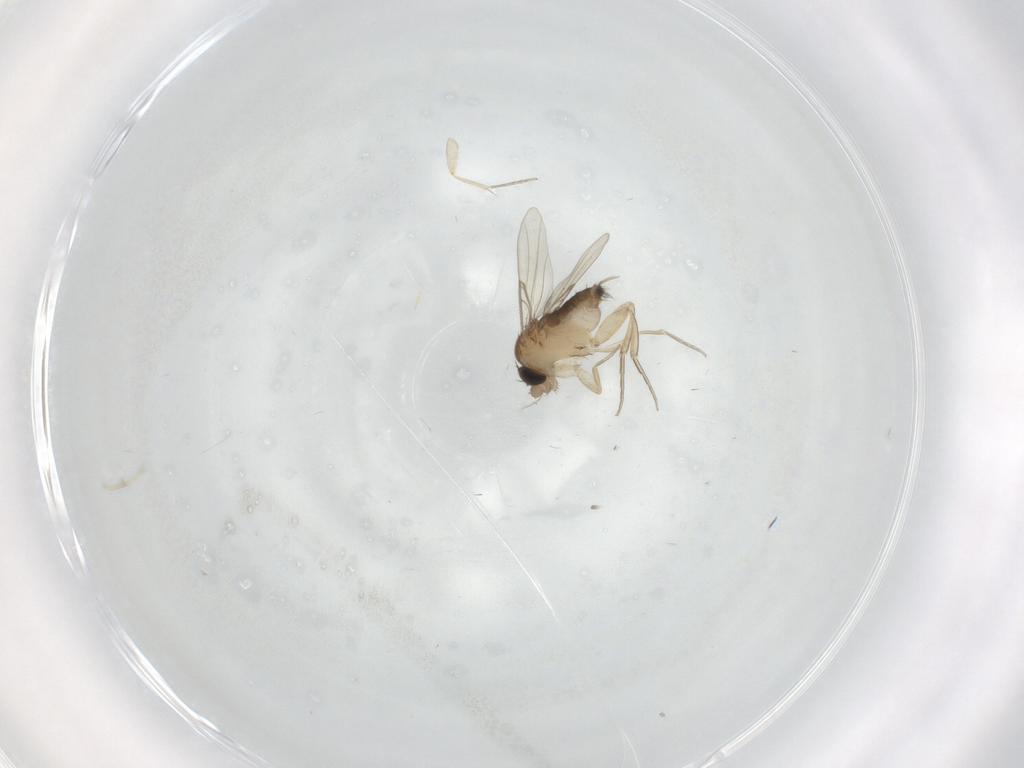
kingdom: Animalia
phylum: Arthropoda
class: Insecta
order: Diptera
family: Phoridae
